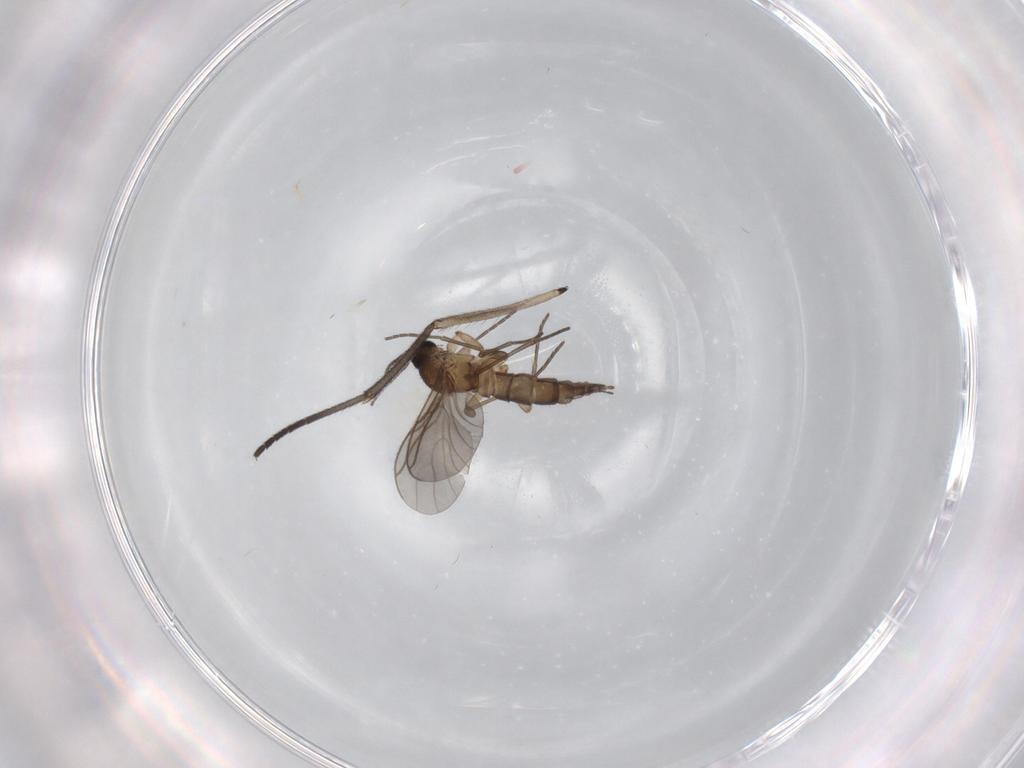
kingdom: Animalia
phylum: Arthropoda
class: Insecta
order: Diptera
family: Sciaridae
